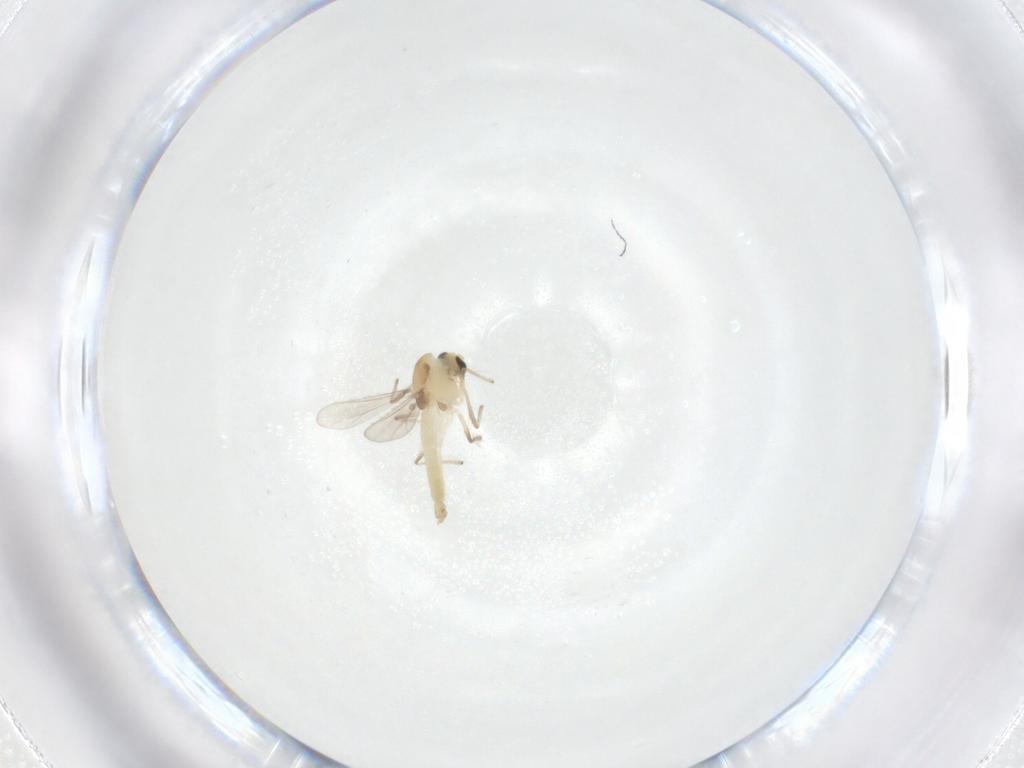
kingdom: Animalia
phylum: Arthropoda
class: Insecta
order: Diptera
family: Chironomidae
